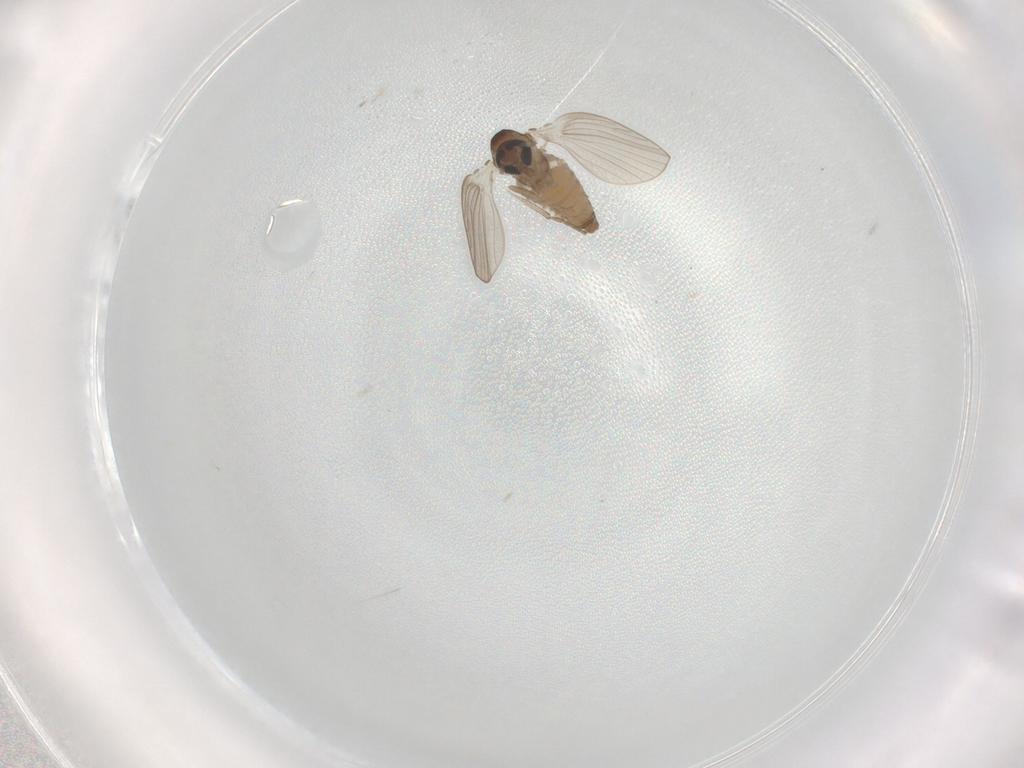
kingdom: Animalia
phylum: Arthropoda
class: Insecta
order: Diptera
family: Psychodidae
